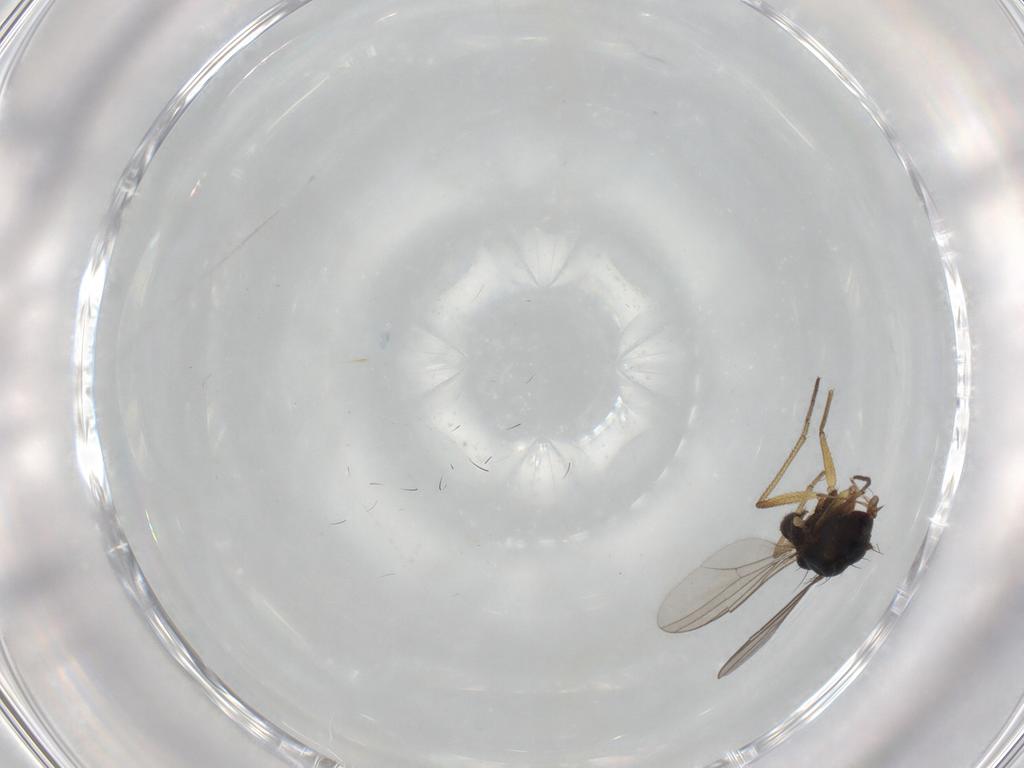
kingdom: Animalia
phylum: Arthropoda
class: Insecta
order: Diptera
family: Dolichopodidae
